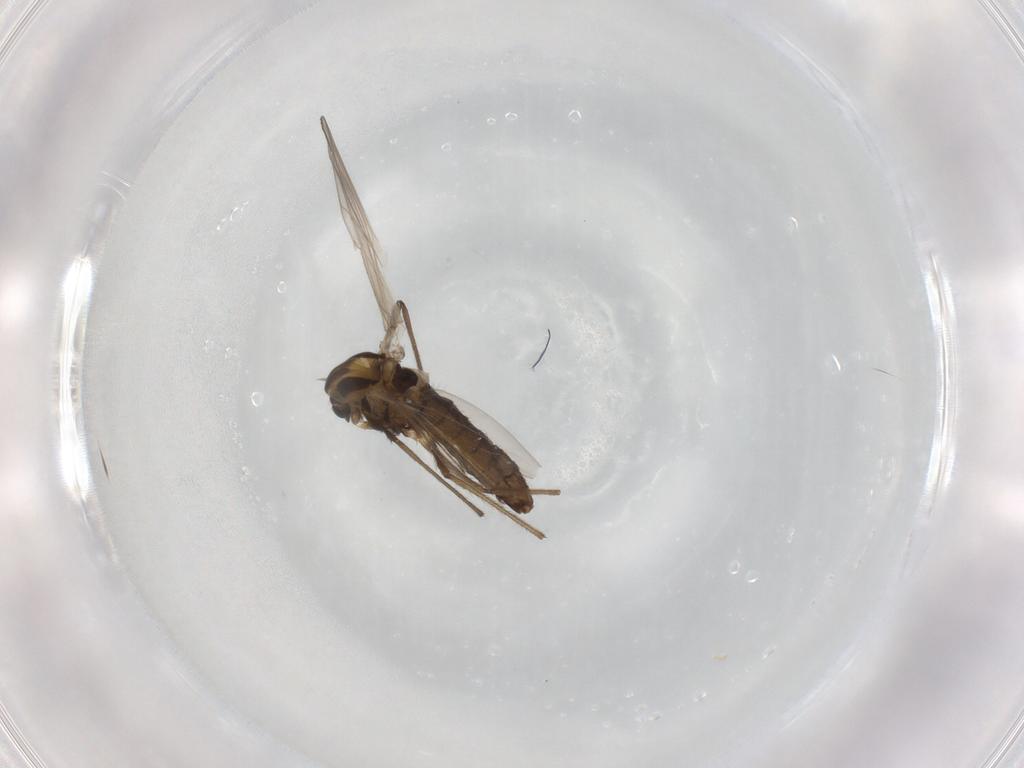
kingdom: Animalia
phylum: Arthropoda
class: Insecta
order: Diptera
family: Chironomidae
